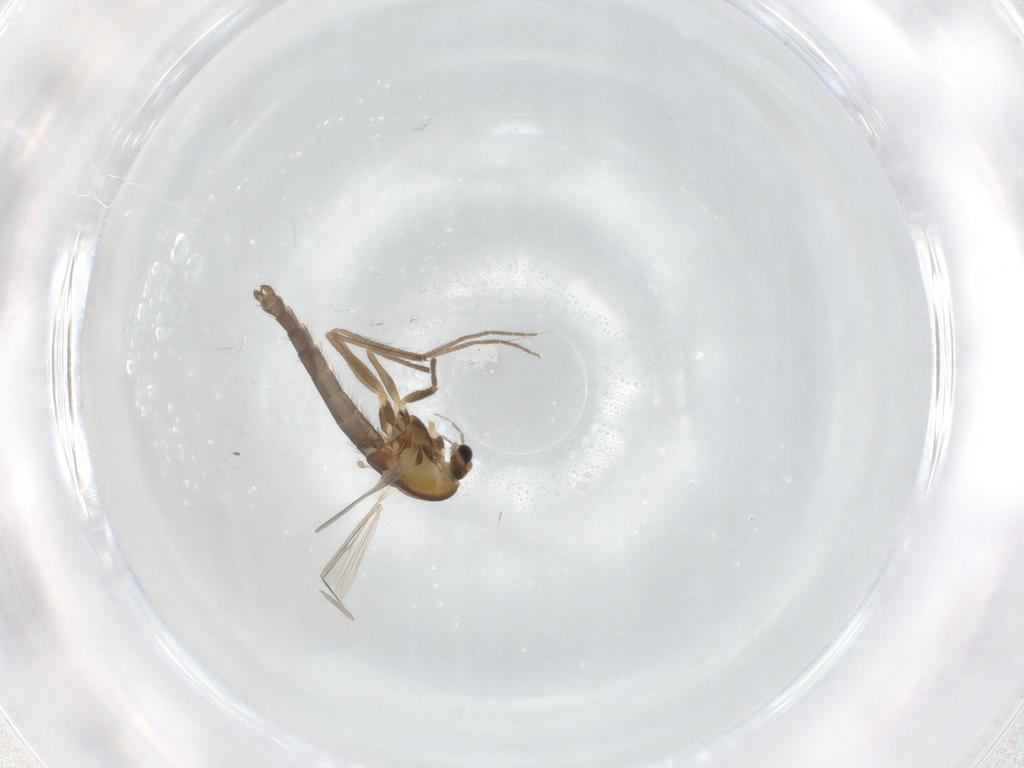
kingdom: Animalia
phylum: Arthropoda
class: Insecta
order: Diptera
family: Chironomidae
